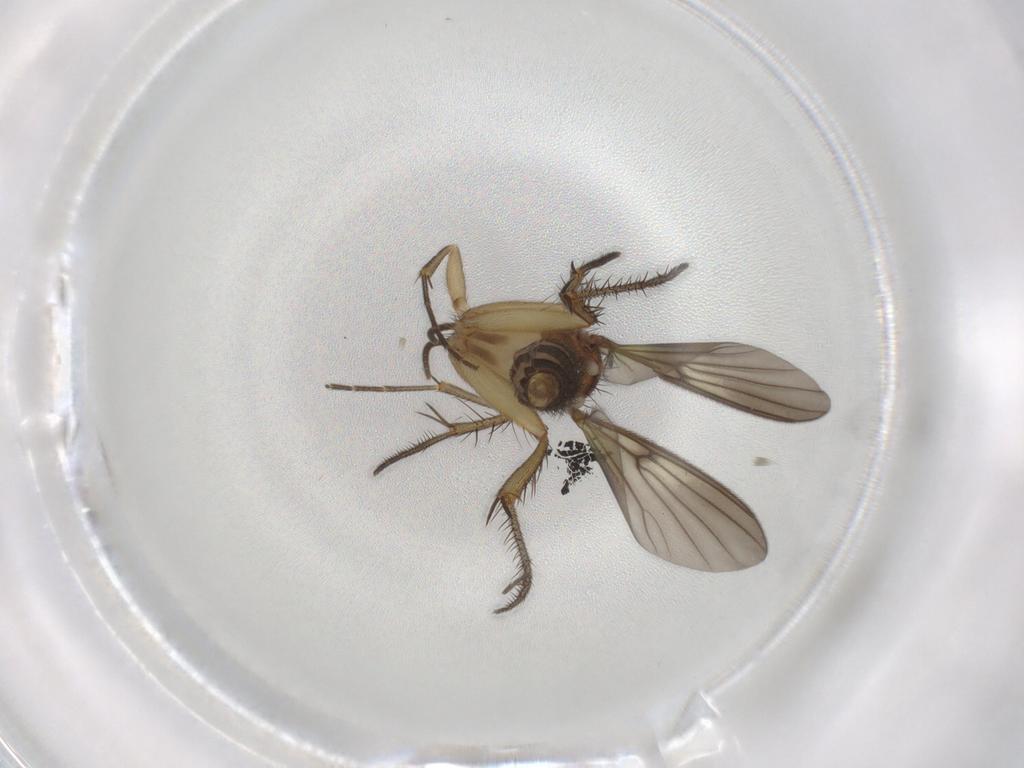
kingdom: Animalia
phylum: Arthropoda
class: Insecta
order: Diptera
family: Mycetophilidae
